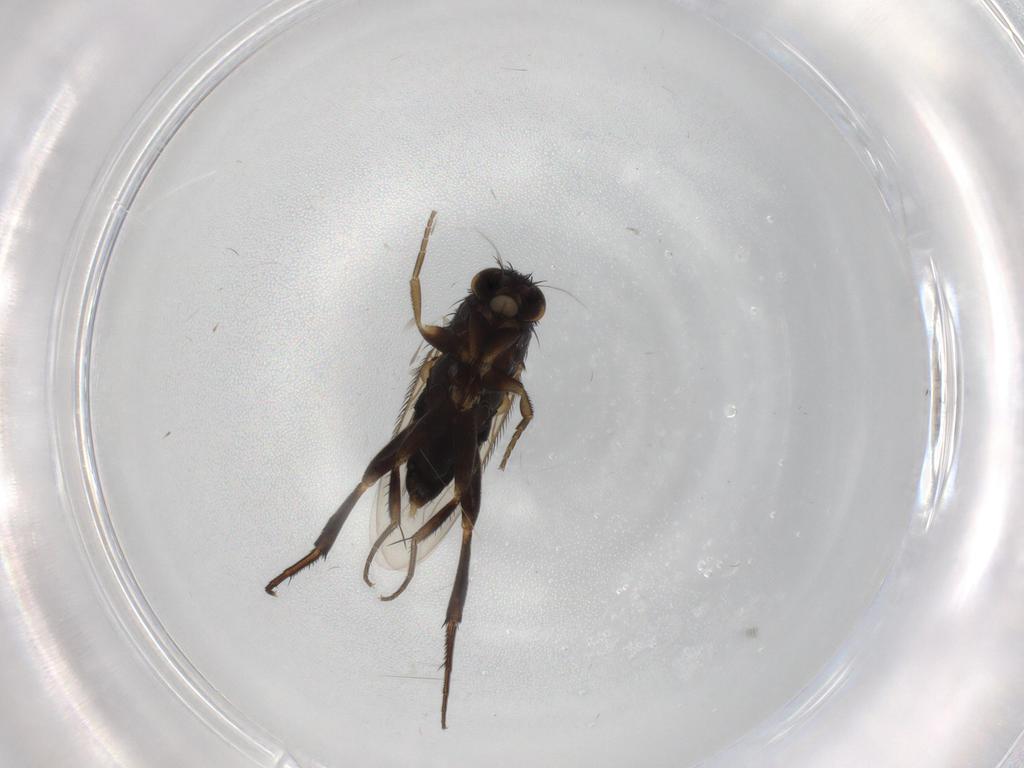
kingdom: Animalia
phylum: Arthropoda
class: Insecta
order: Diptera
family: Phoridae
